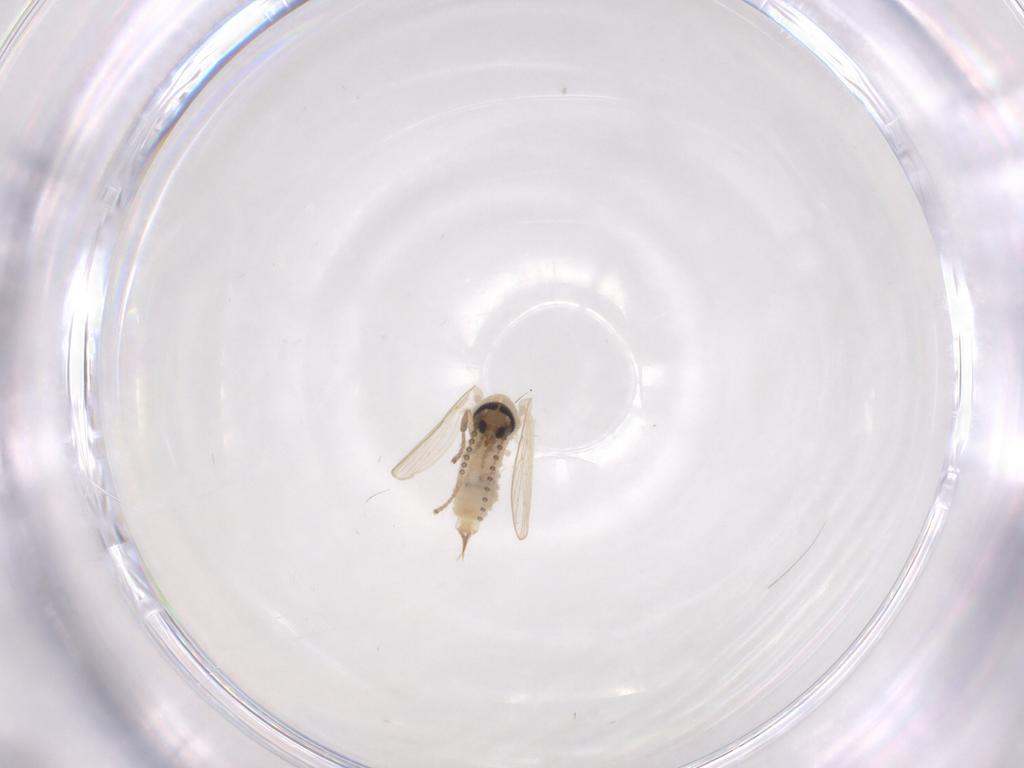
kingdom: Animalia
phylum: Arthropoda
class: Insecta
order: Diptera
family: Psychodidae
